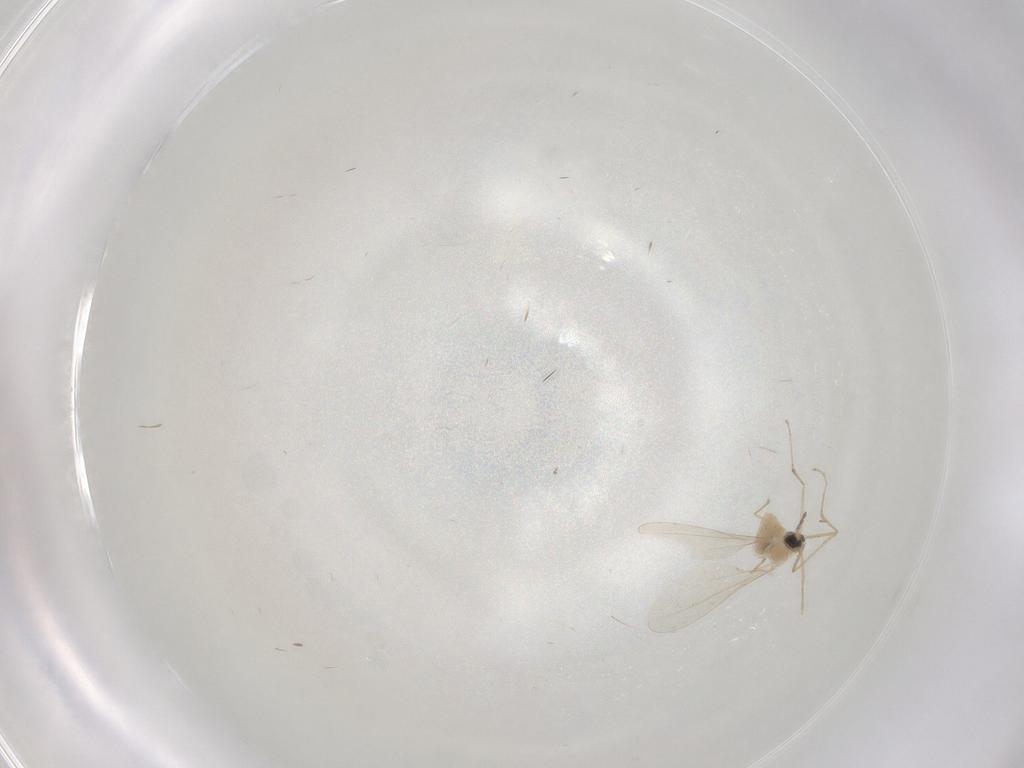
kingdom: Animalia
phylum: Arthropoda
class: Insecta
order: Diptera
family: Cecidomyiidae
